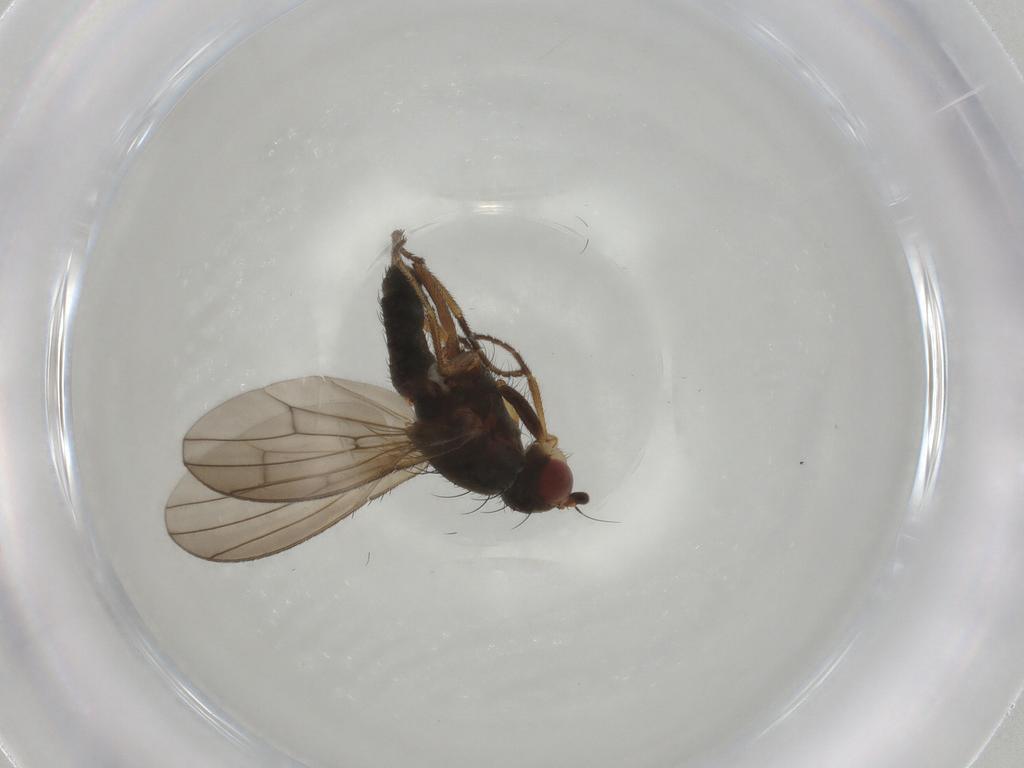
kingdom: Animalia
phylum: Arthropoda
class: Insecta
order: Diptera
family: Heleomyzidae
